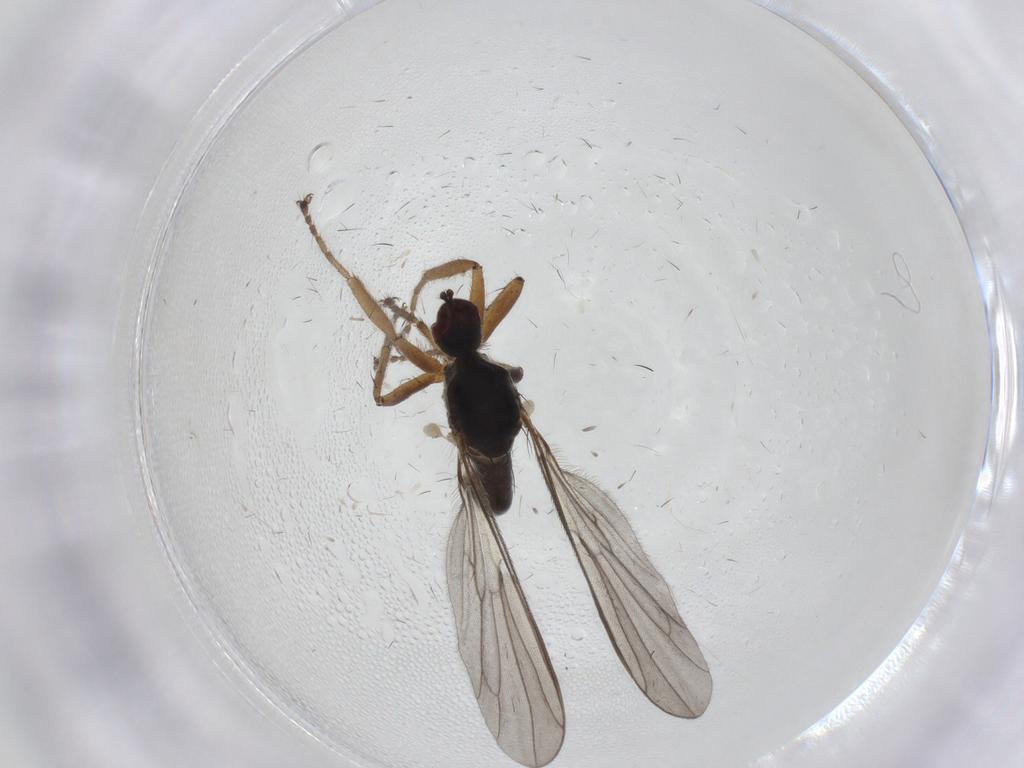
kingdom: Animalia
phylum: Arthropoda
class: Insecta
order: Diptera
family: Hybotidae
